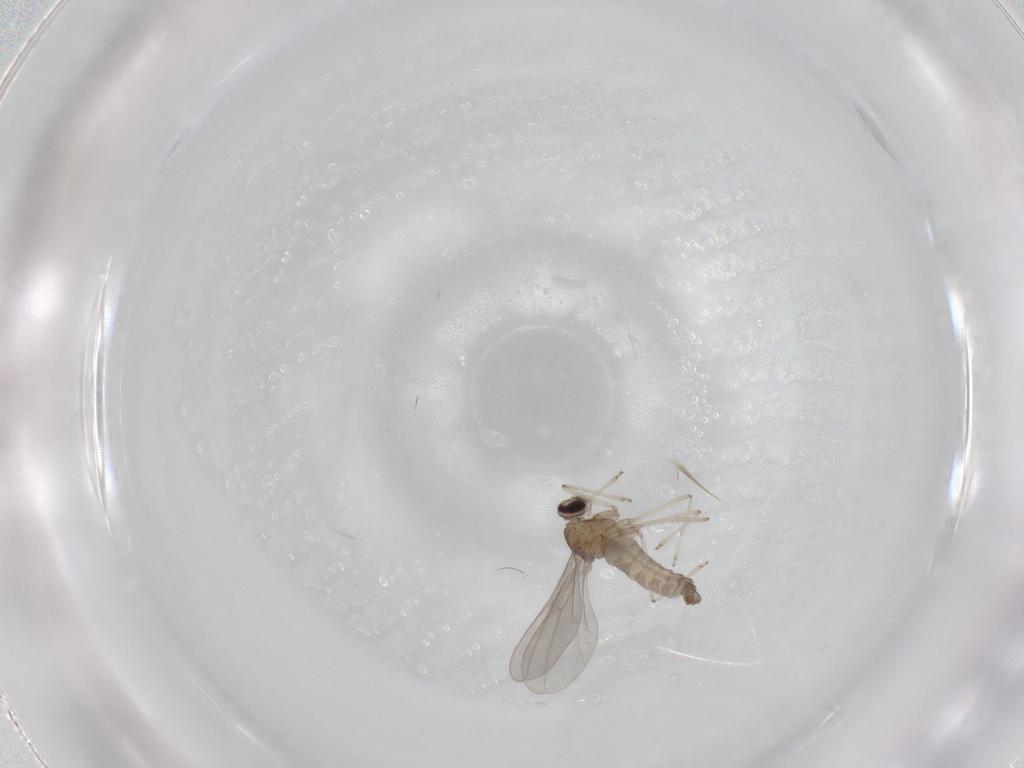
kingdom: Animalia
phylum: Arthropoda
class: Insecta
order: Diptera
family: Cecidomyiidae
